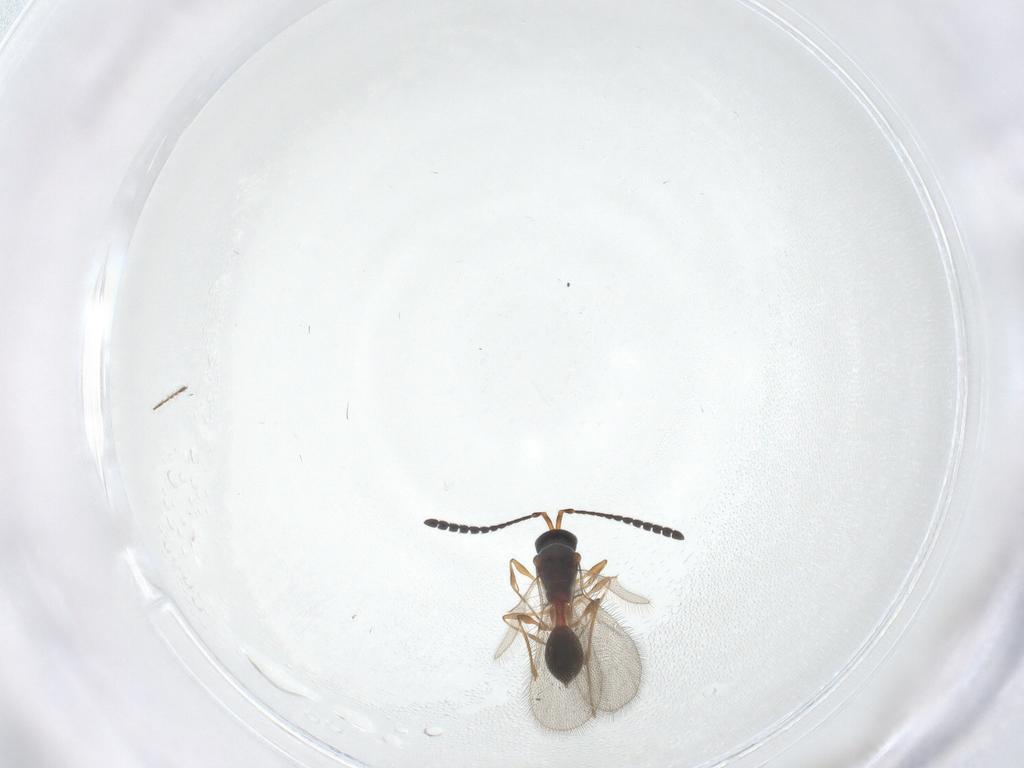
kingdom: Animalia
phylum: Arthropoda
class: Insecta
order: Hymenoptera
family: Diapriidae
